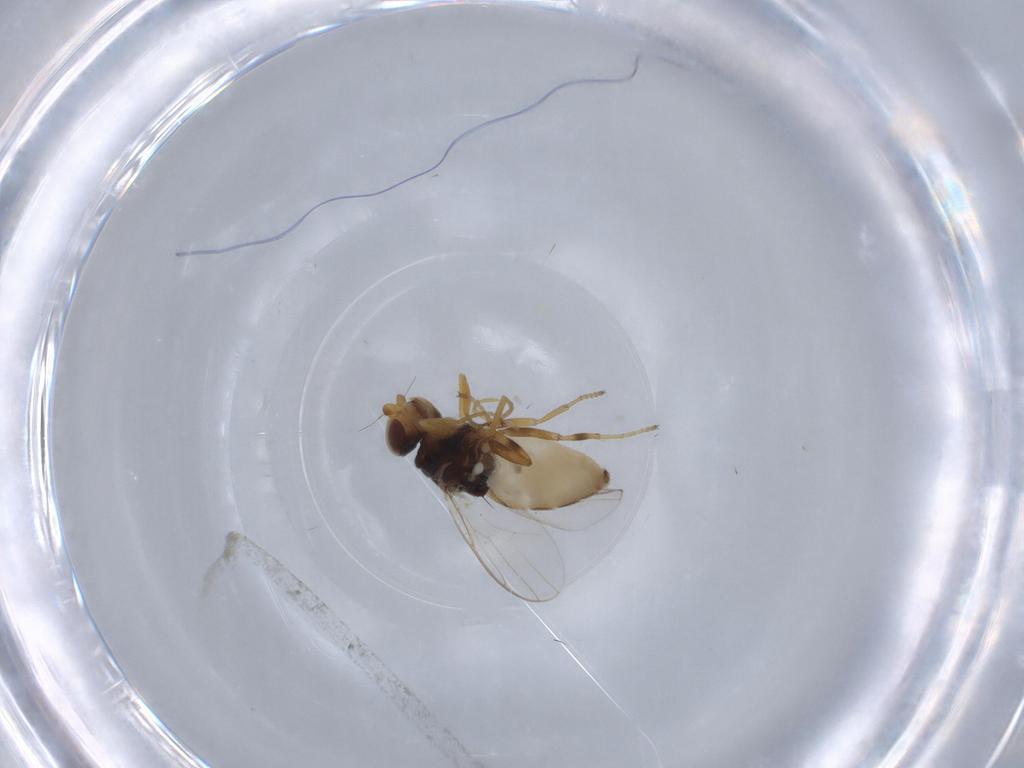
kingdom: Animalia
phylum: Arthropoda
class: Insecta
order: Diptera
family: Chloropidae
